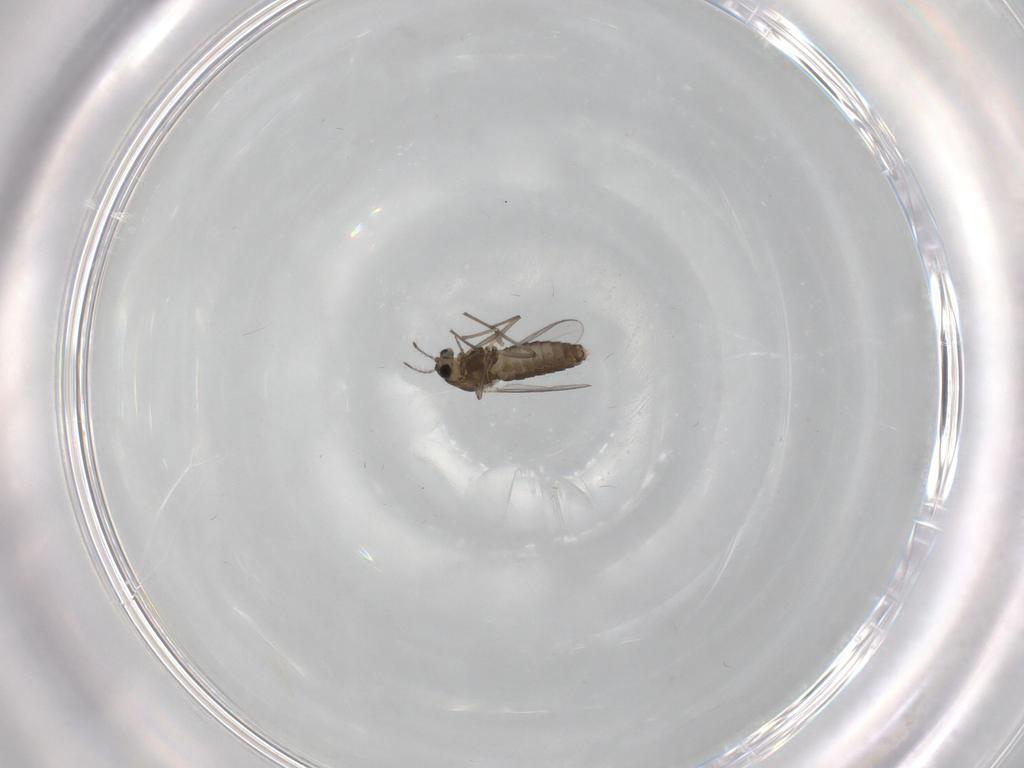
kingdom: Animalia
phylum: Arthropoda
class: Insecta
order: Diptera
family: Chironomidae
